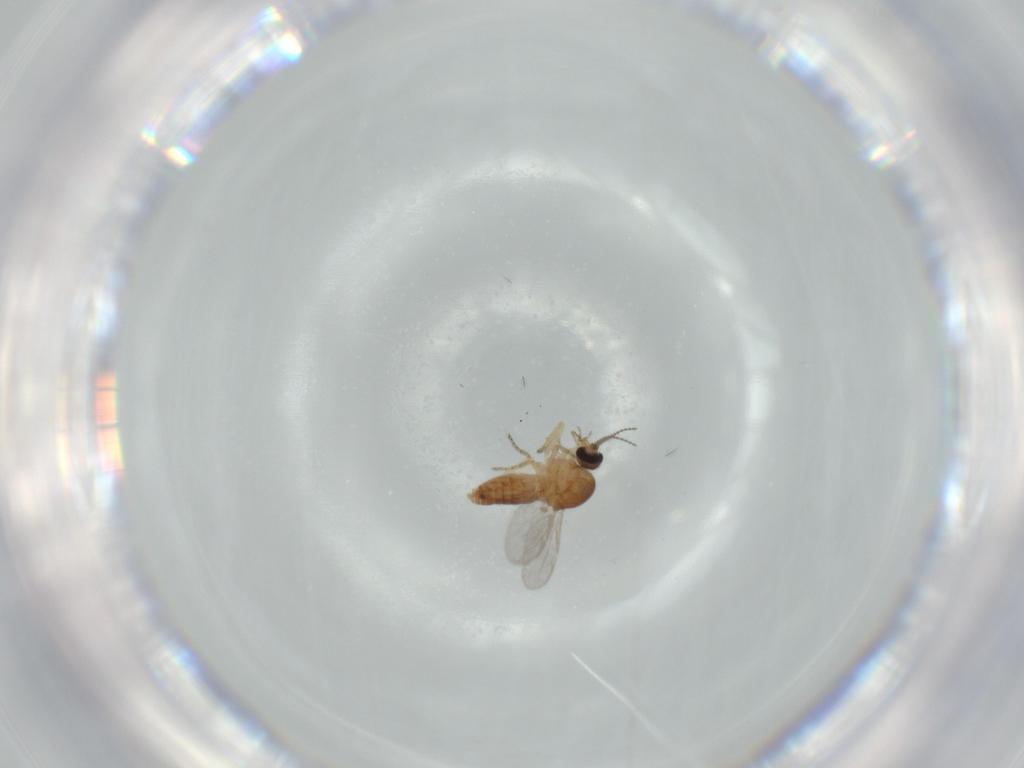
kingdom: Animalia
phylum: Arthropoda
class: Insecta
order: Diptera
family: Ceratopogonidae
